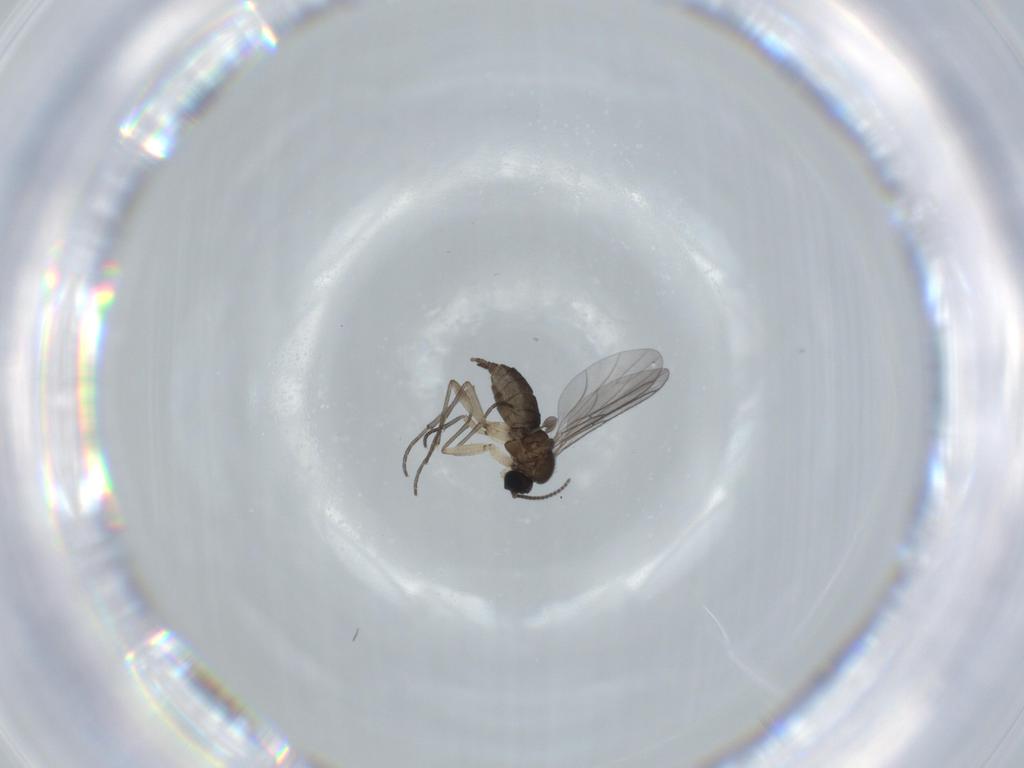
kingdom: Animalia
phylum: Arthropoda
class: Insecta
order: Diptera
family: Sciaridae
